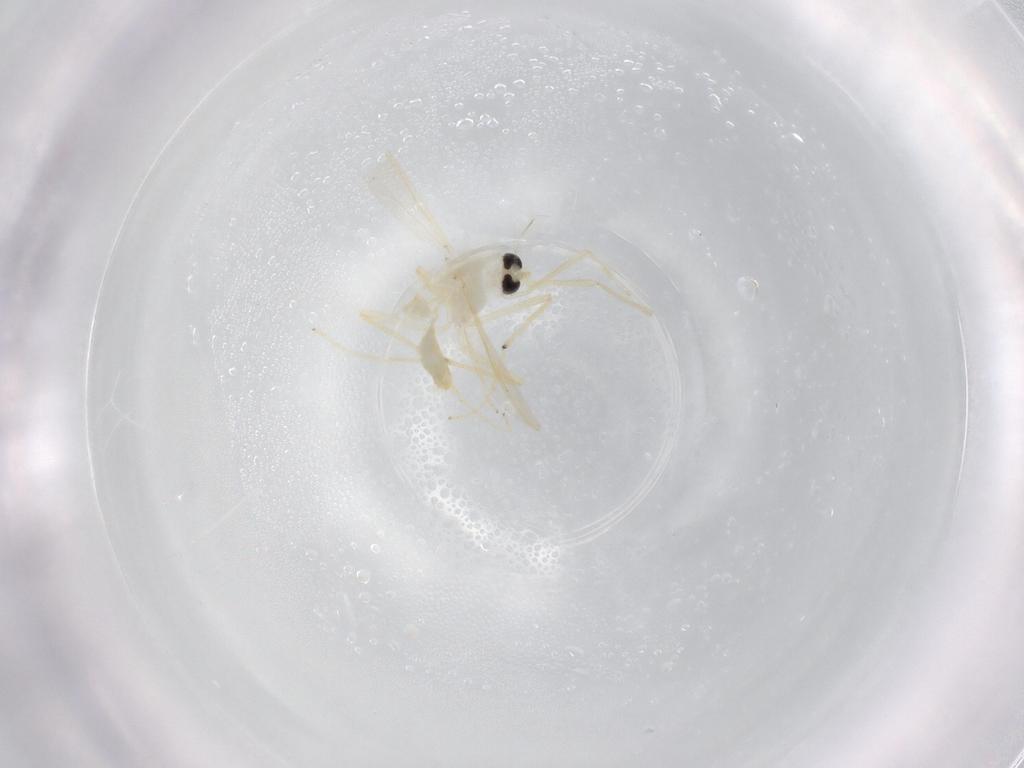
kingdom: Animalia
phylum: Arthropoda
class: Insecta
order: Diptera
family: Chironomidae
